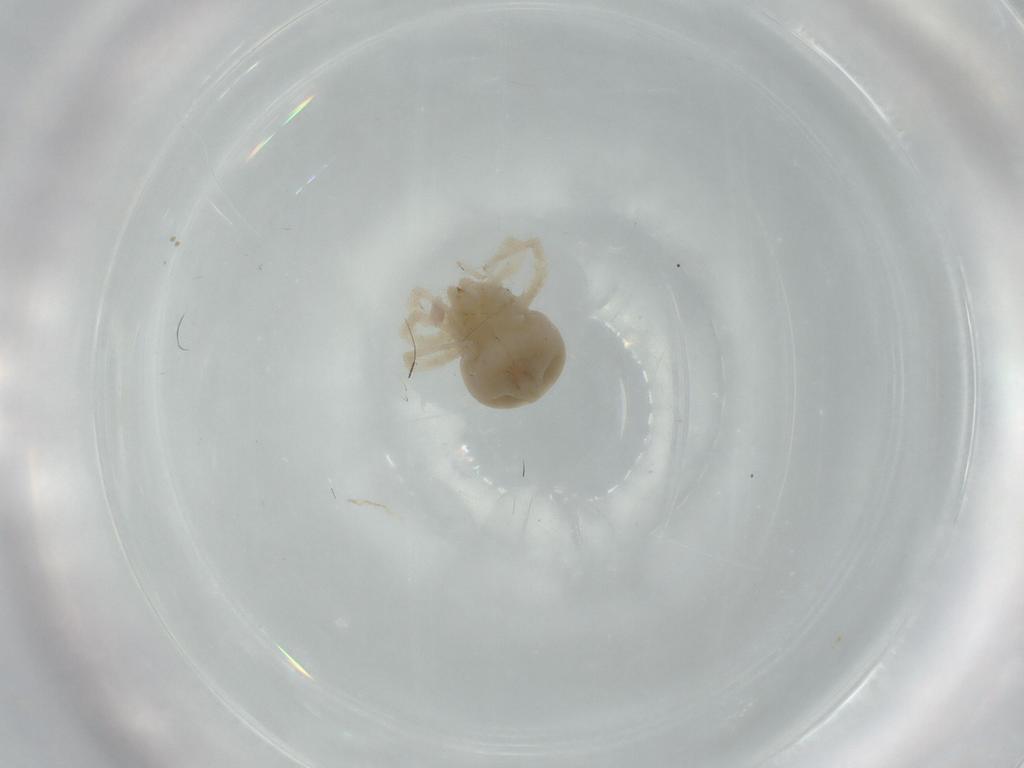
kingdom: Animalia
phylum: Arthropoda
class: Arachnida
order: Trombidiformes
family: Anystidae
